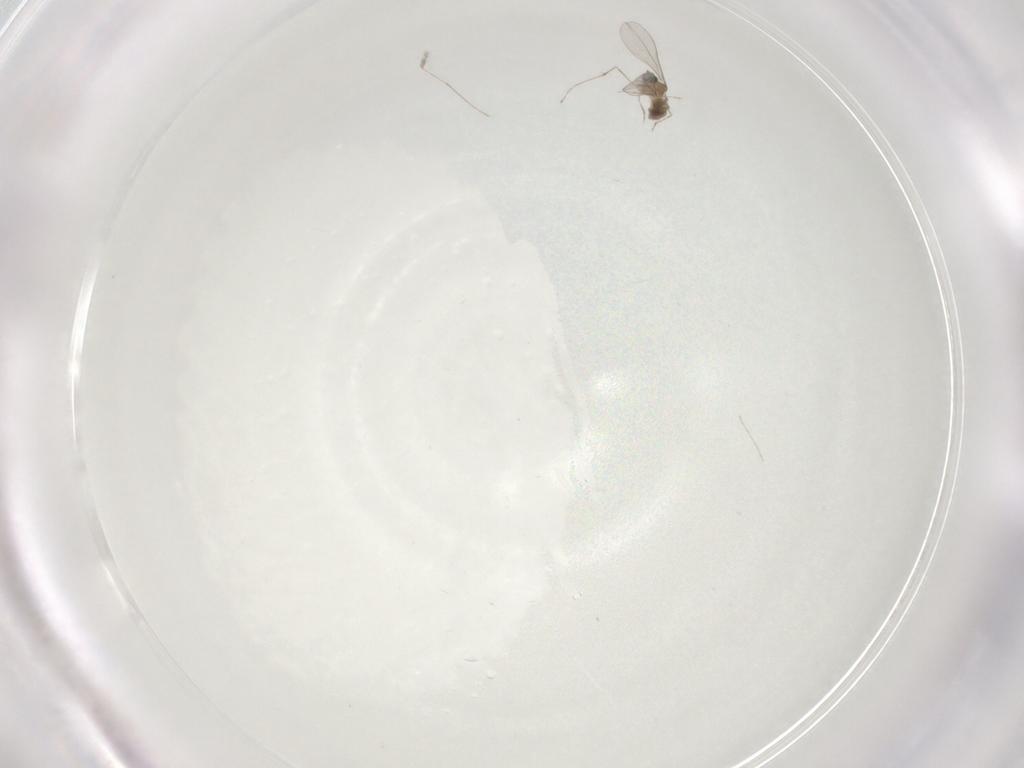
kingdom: Animalia
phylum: Arthropoda
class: Insecta
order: Diptera
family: Cecidomyiidae
